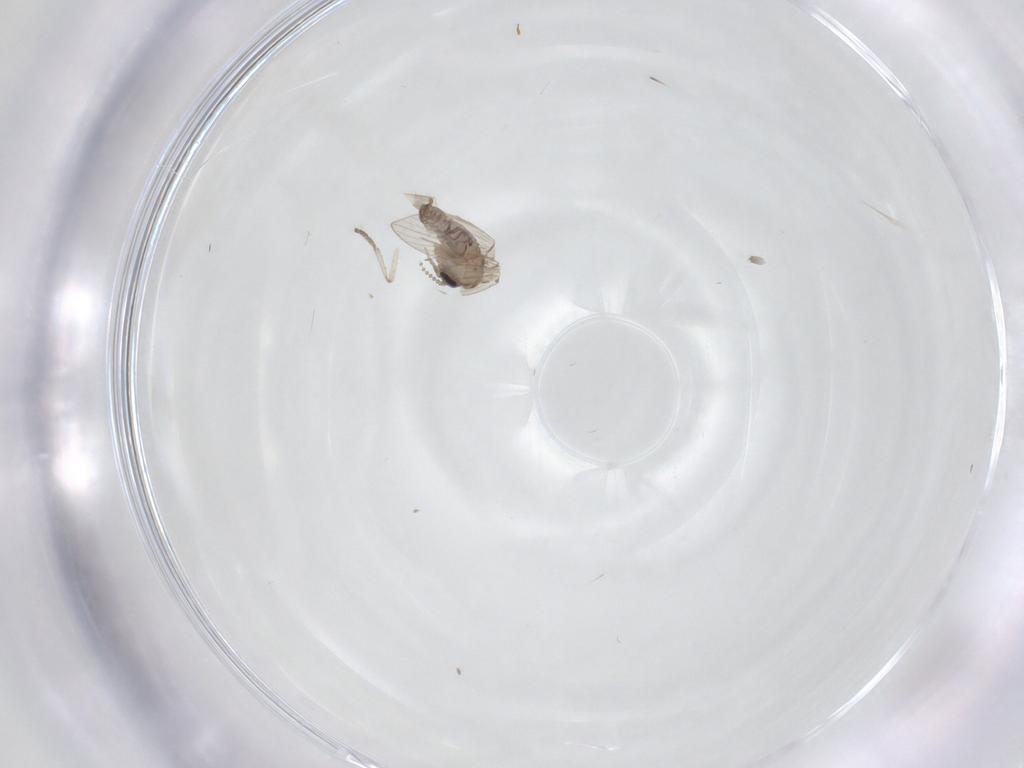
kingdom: Animalia
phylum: Arthropoda
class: Insecta
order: Diptera
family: Psychodidae
